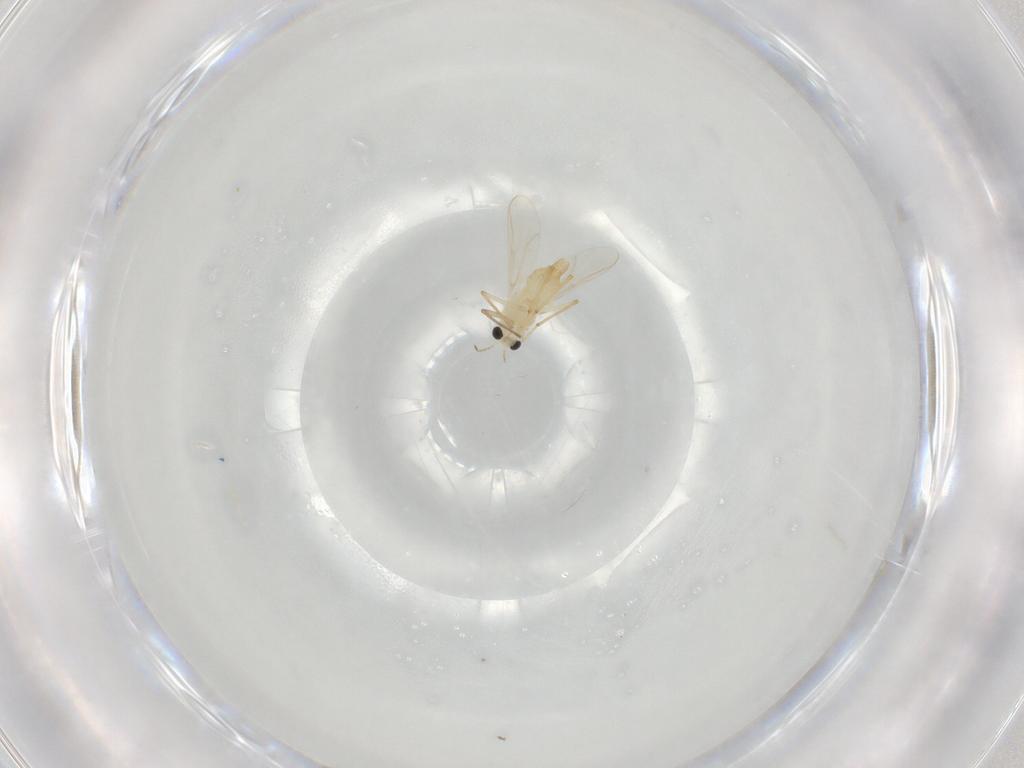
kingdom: Animalia
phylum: Arthropoda
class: Insecta
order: Diptera
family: Chironomidae
